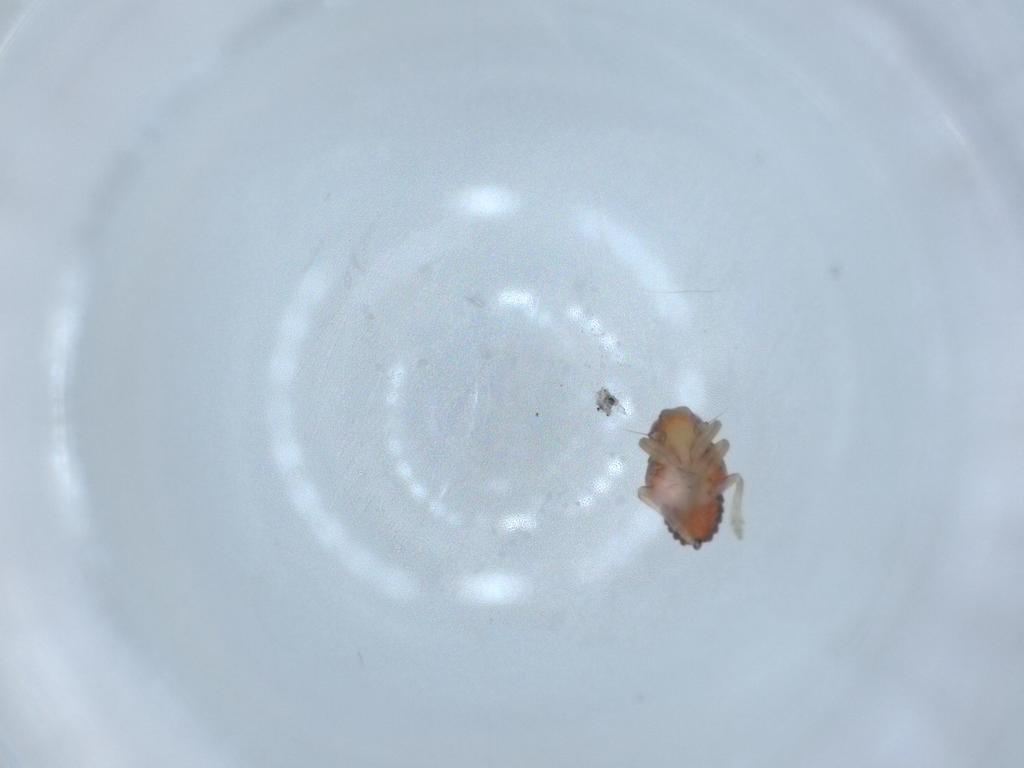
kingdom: Animalia
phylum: Arthropoda
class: Insecta
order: Hemiptera
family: Issidae
